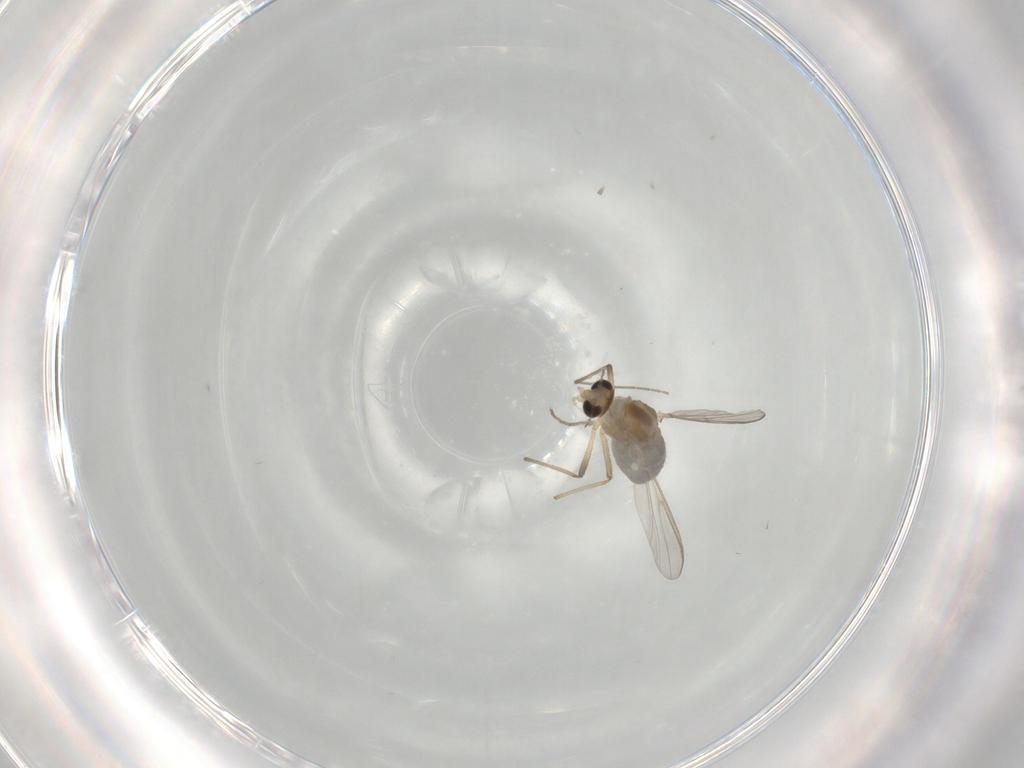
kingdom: Animalia
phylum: Arthropoda
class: Insecta
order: Diptera
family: Chironomidae
